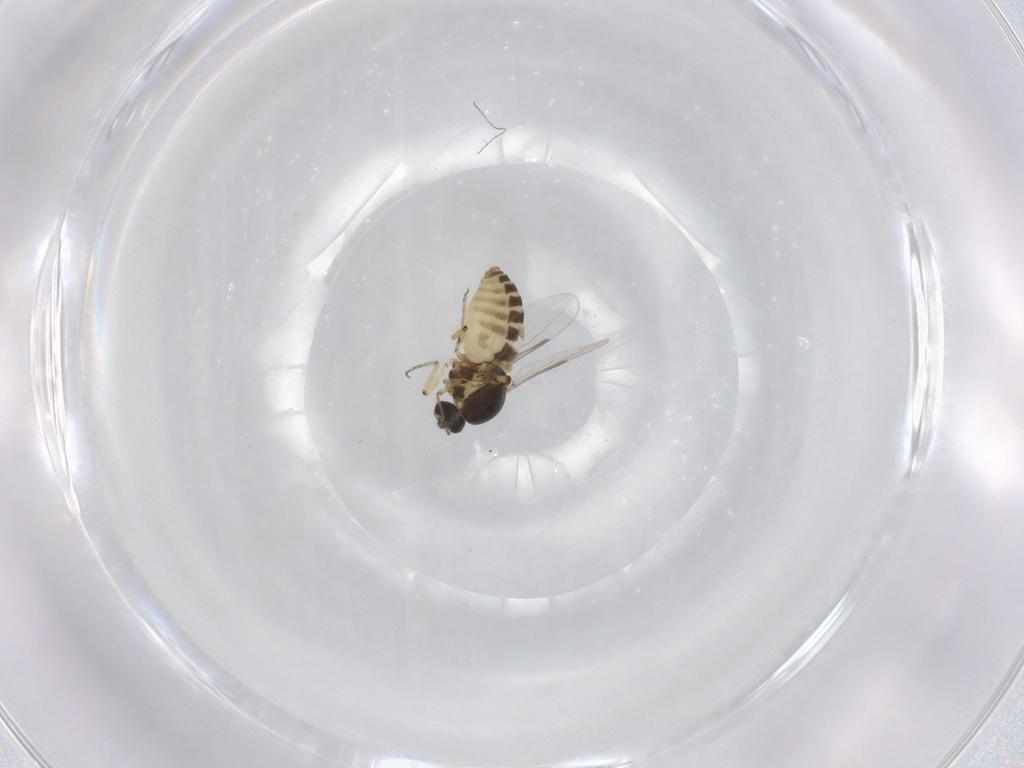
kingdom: Animalia
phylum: Arthropoda
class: Insecta
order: Diptera
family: Ceratopogonidae
